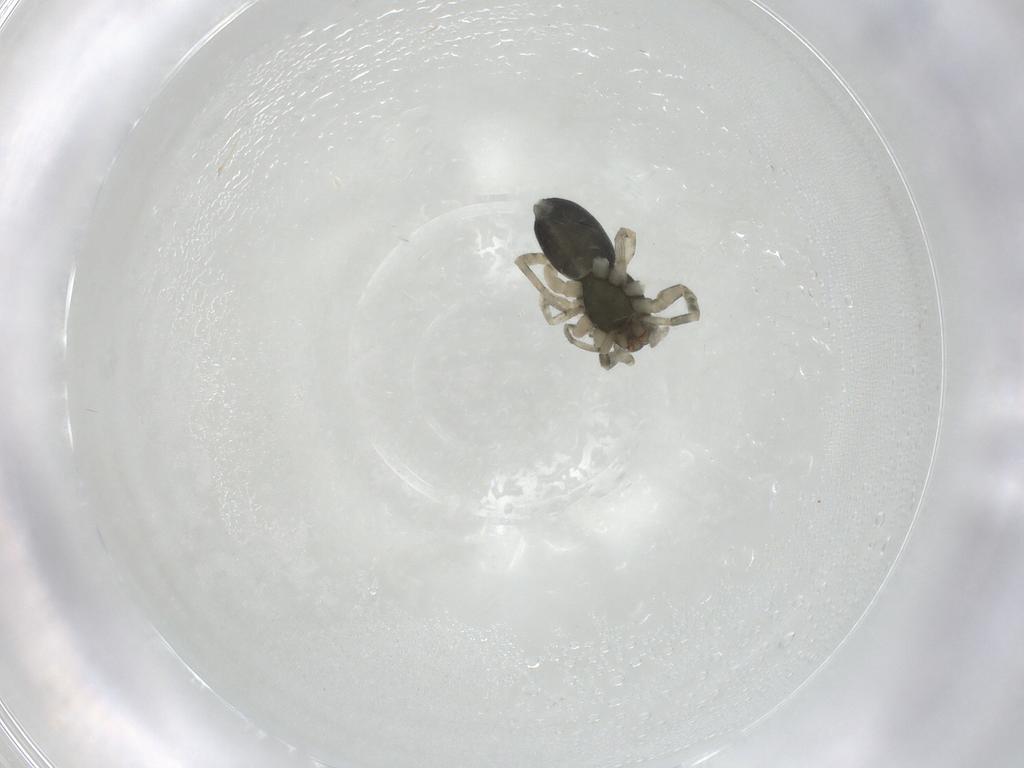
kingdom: Animalia
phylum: Arthropoda
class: Arachnida
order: Araneae
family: Trachelidae
